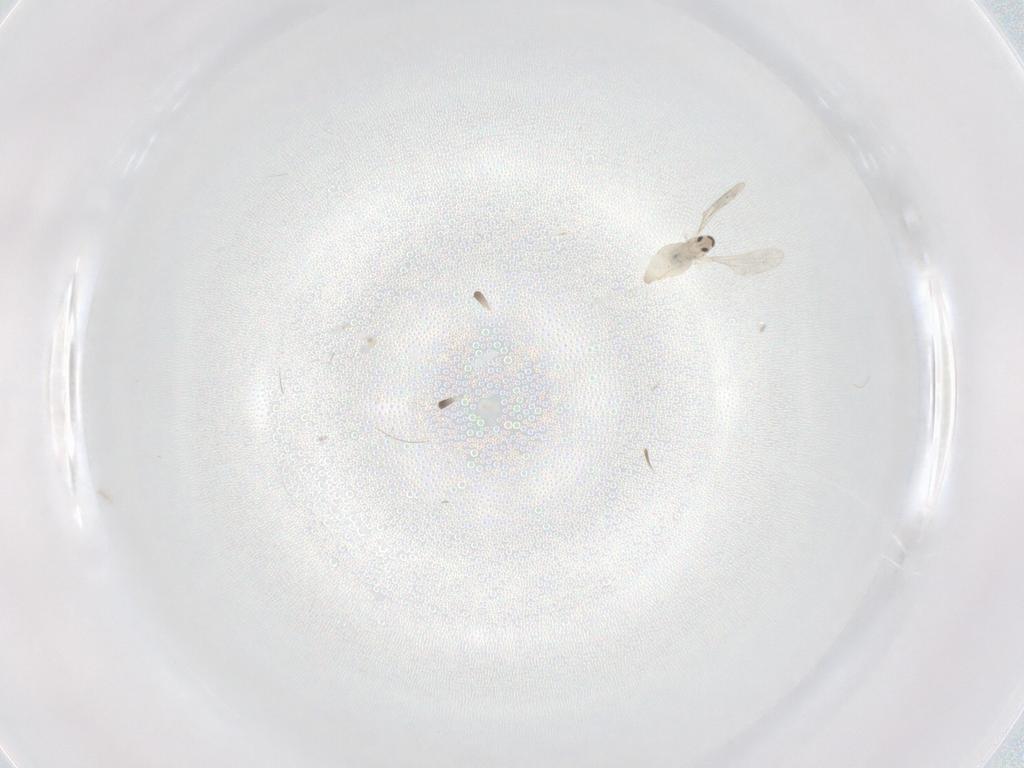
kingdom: Animalia
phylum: Arthropoda
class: Insecta
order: Diptera
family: Cecidomyiidae
